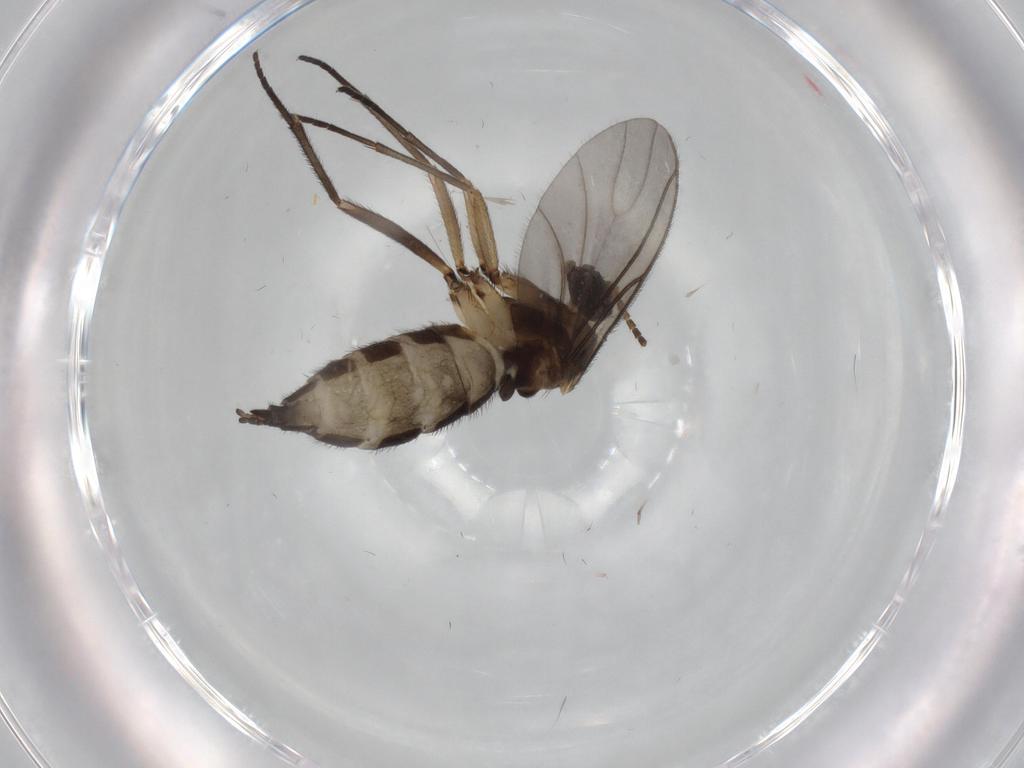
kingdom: Animalia
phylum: Arthropoda
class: Insecta
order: Diptera
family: Sciaridae
